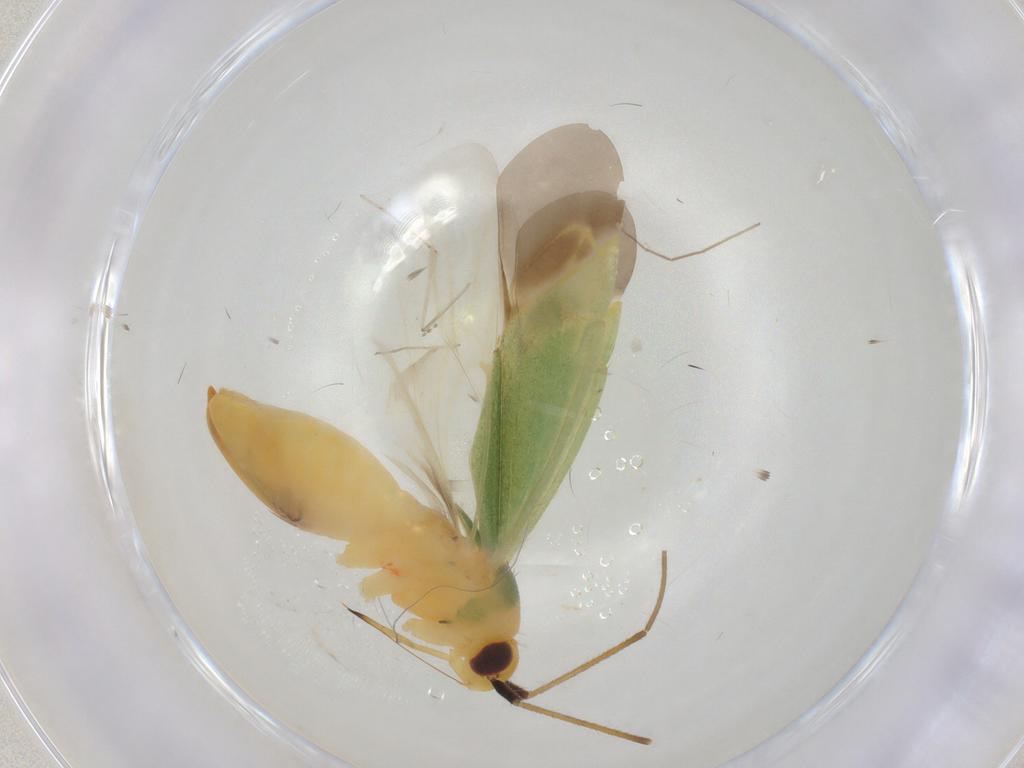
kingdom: Animalia
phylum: Arthropoda
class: Insecta
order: Hemiptera
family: Miridae
